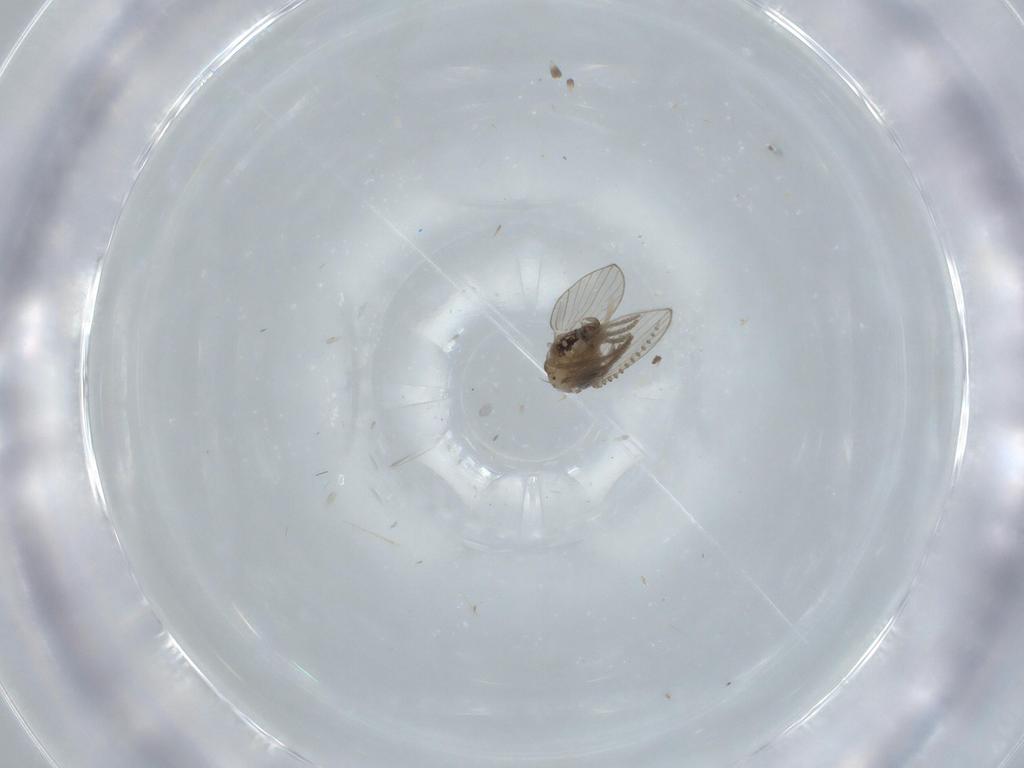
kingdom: Animalia
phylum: Arthropoda
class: Insecta
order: Diptera
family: Psychodidae
